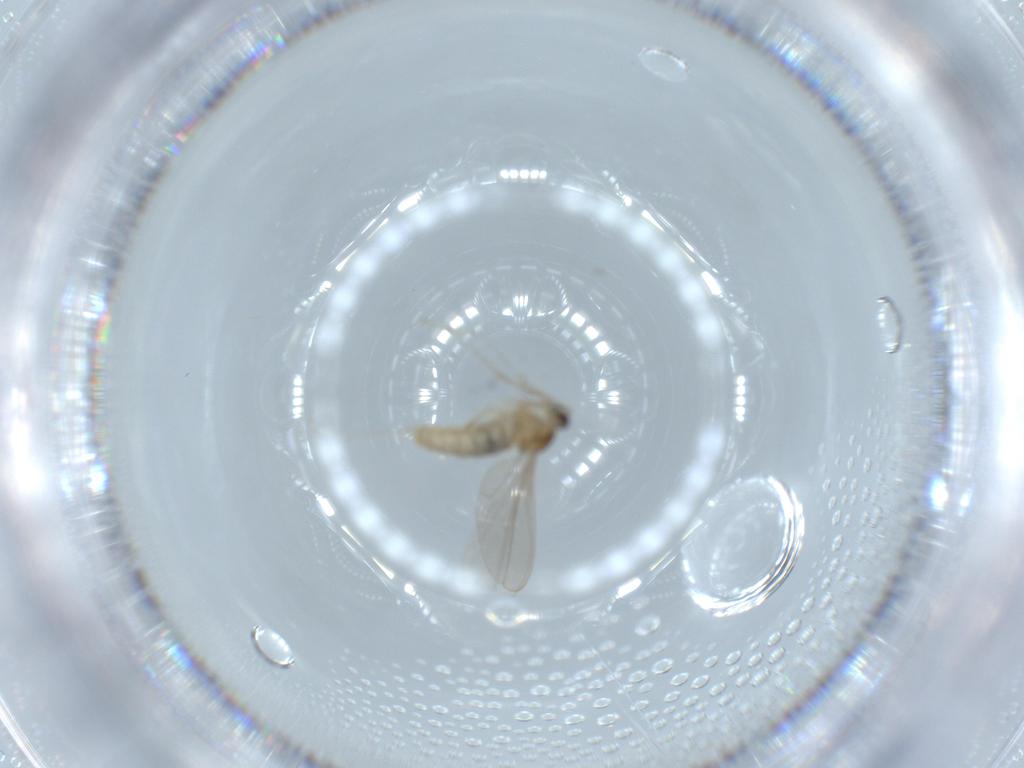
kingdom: Animalia
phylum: Arthropoda
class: Insecta
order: Diptera
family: Cecidomyiidae
